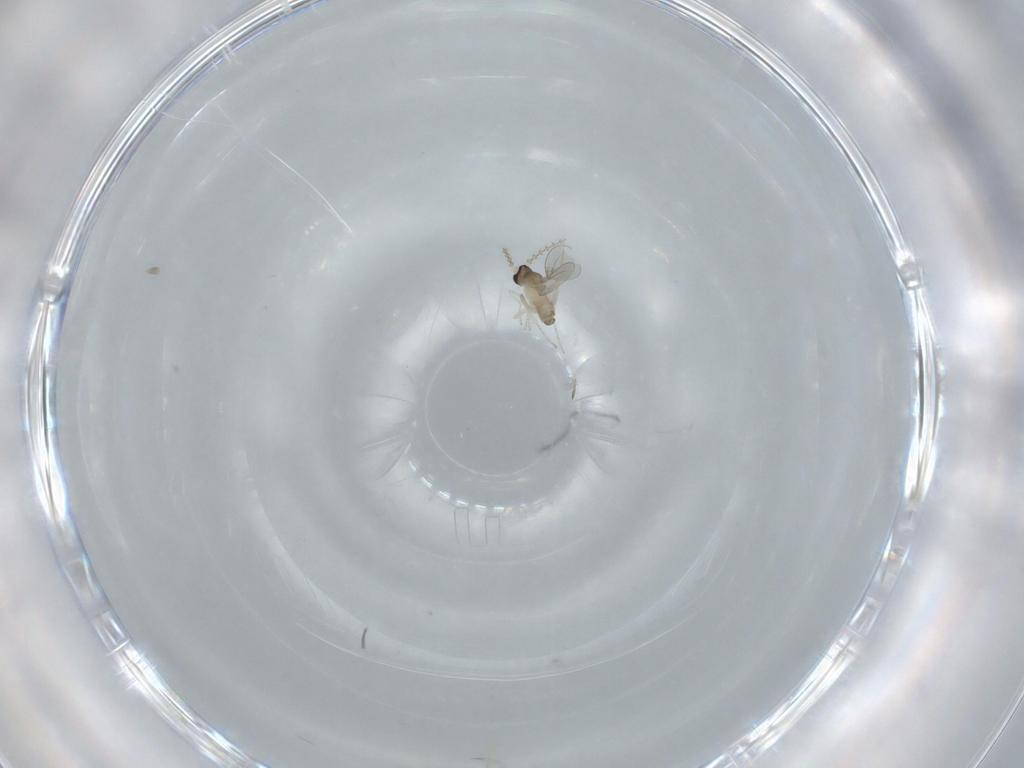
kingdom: Animalia
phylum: Arthropoda
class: Insecta
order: Diptera
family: Cecidomyiidae
